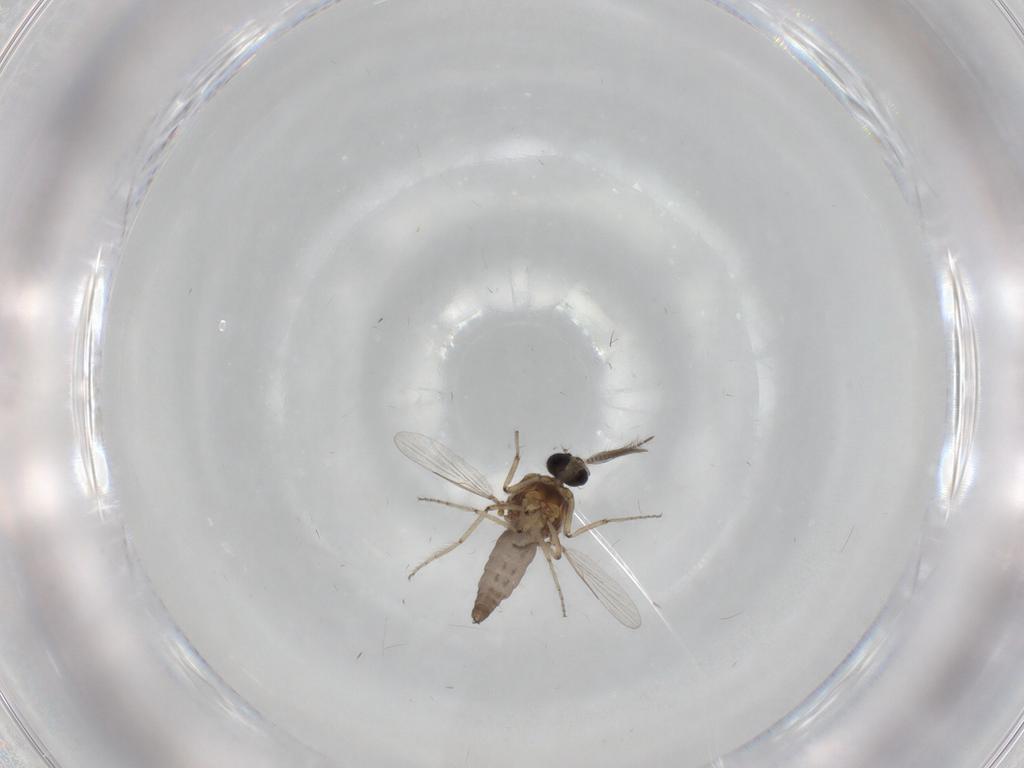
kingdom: Animalia
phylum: Arthropoda
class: Insecta
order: Diptera
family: Ceratopogonidae
